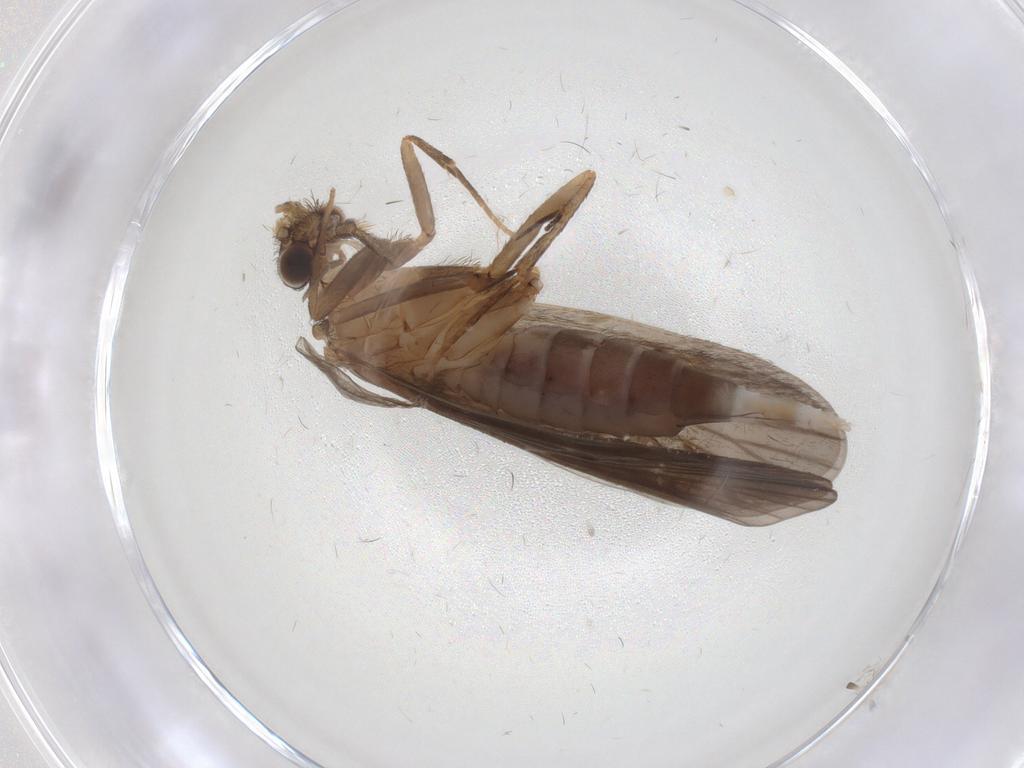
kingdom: Animalia
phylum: Arthropoda
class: Insecta
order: Trichoptera
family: Philopotamidae
